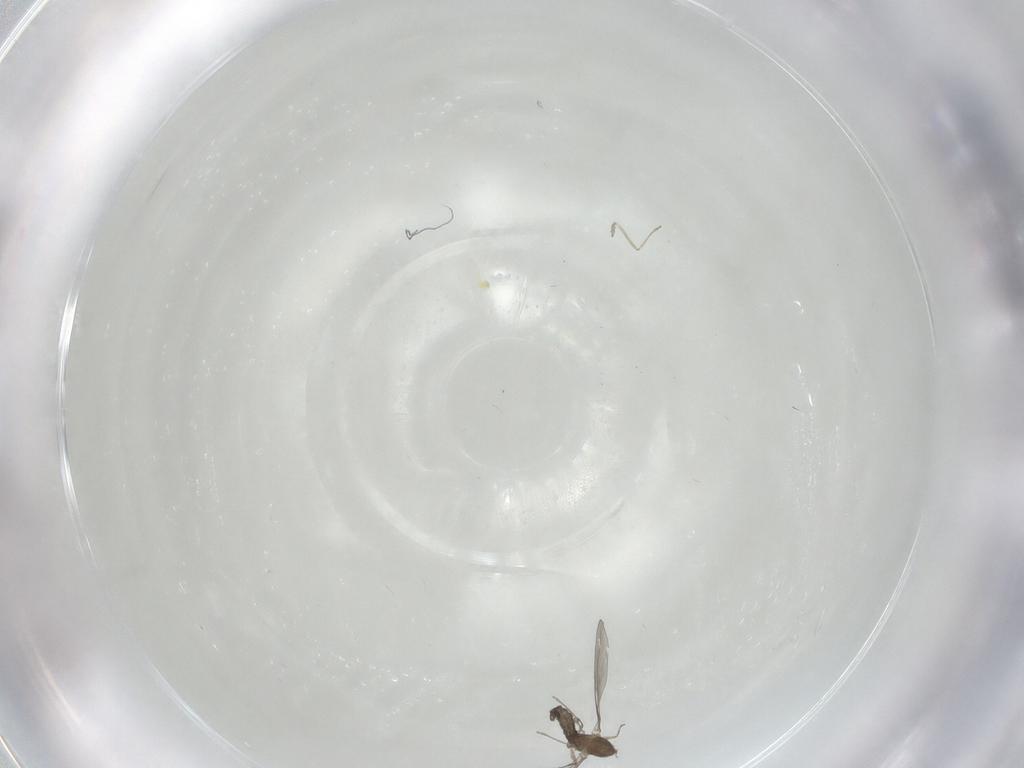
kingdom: Animalia
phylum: Arthropoda
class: Insecta
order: Diptera
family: Cecidomyiidae
